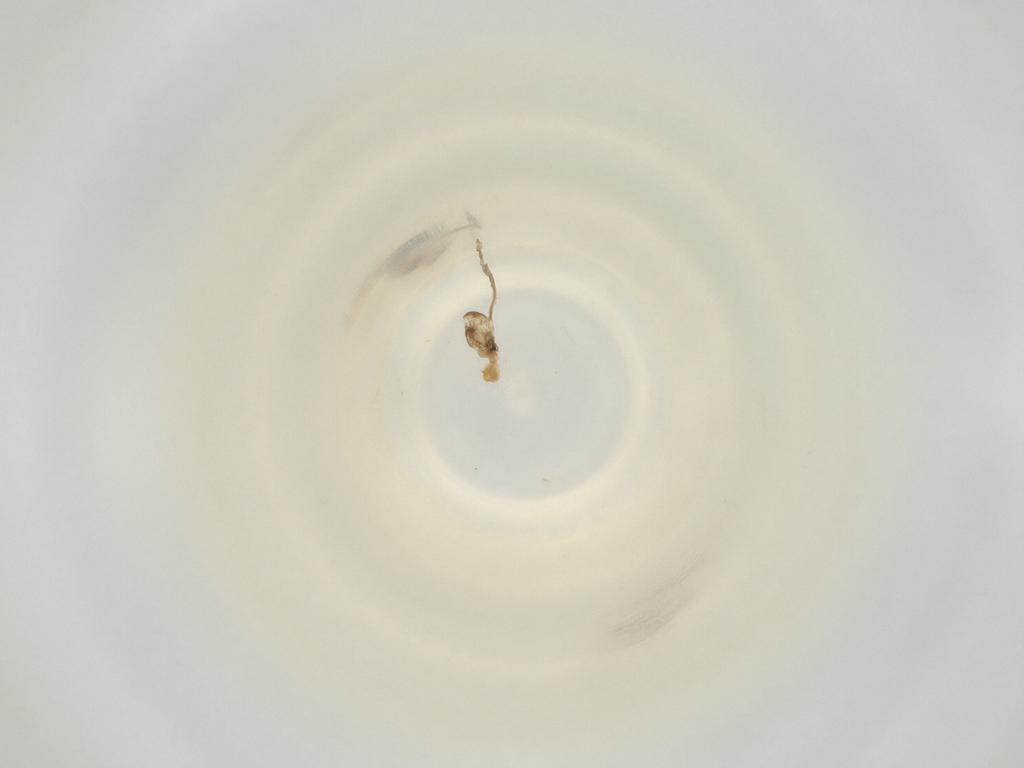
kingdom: Animalia
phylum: Arthropoda
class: Insecta
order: Diptera
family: Cecidomyiidae
